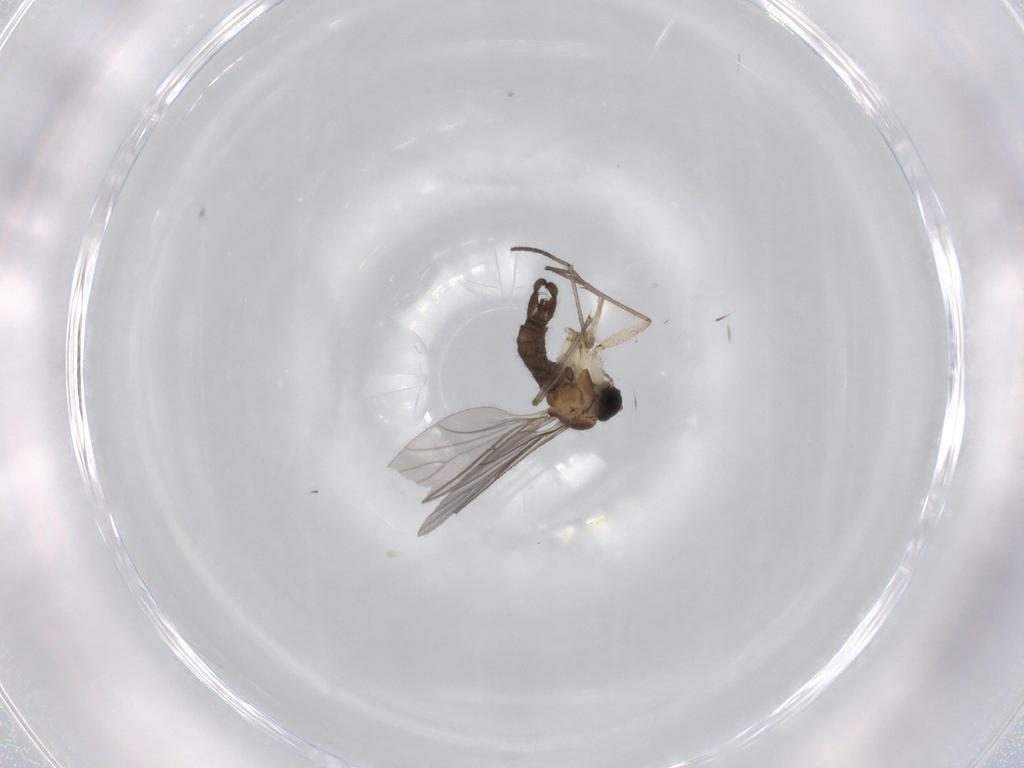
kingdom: Animalia
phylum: Arthropoda
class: Insecta
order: Diptera
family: Sciaridae
